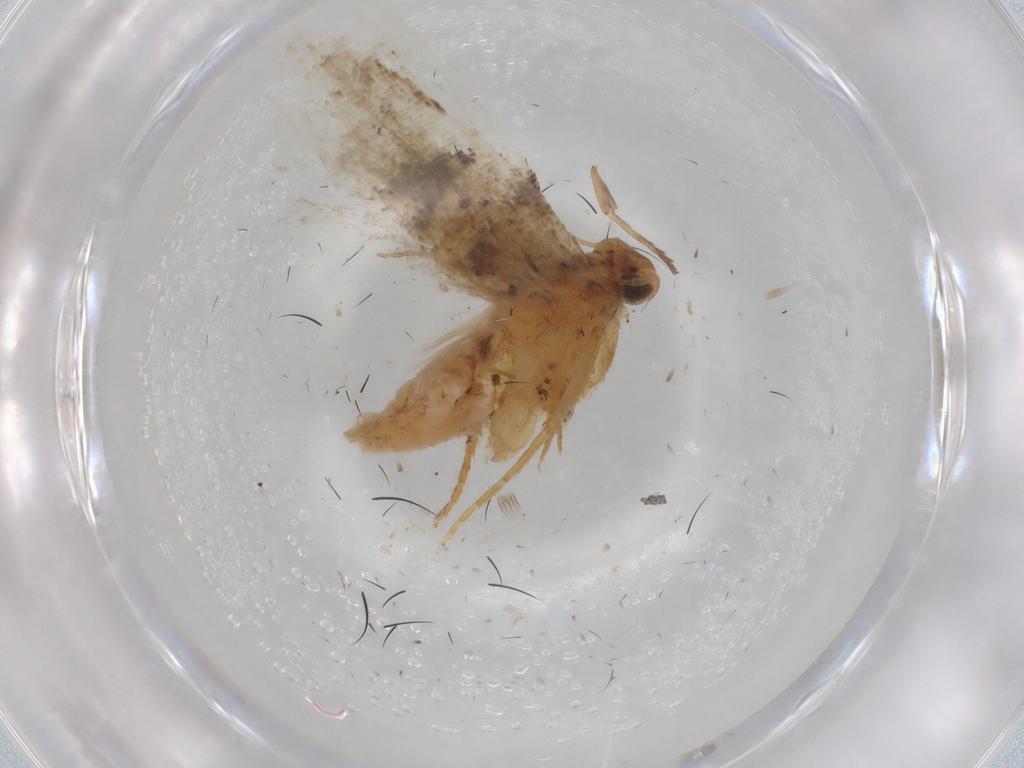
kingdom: Animalia
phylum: Arthropoda
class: Insecta
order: Lepidoptera
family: Gelechiidae
